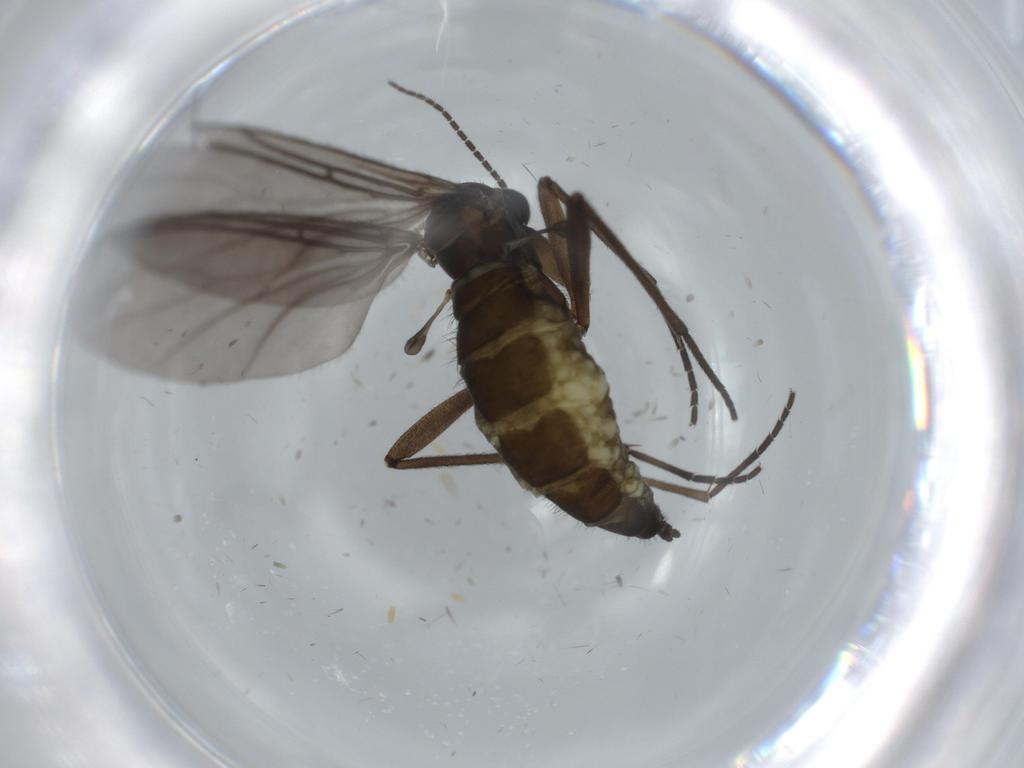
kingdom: Animalia
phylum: Arthropoda
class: Insecta
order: Diptera
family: Sciaridae
